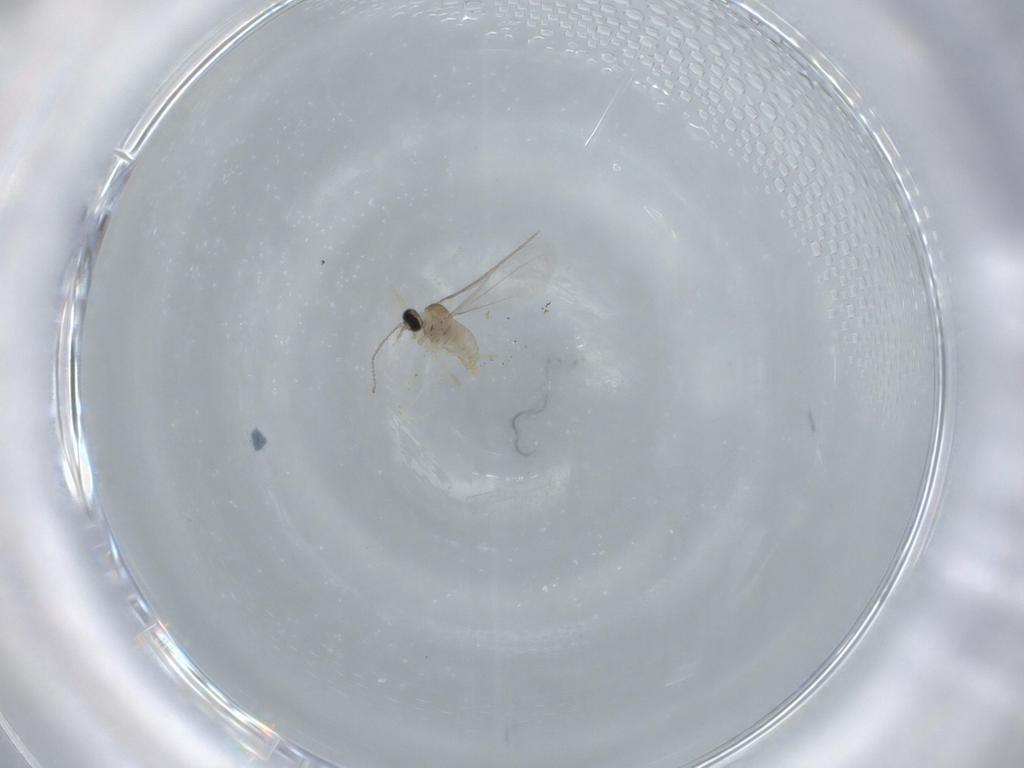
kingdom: Animalia
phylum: Arthropoda
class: Insecta
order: Diptera
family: Cecidomyiidae
